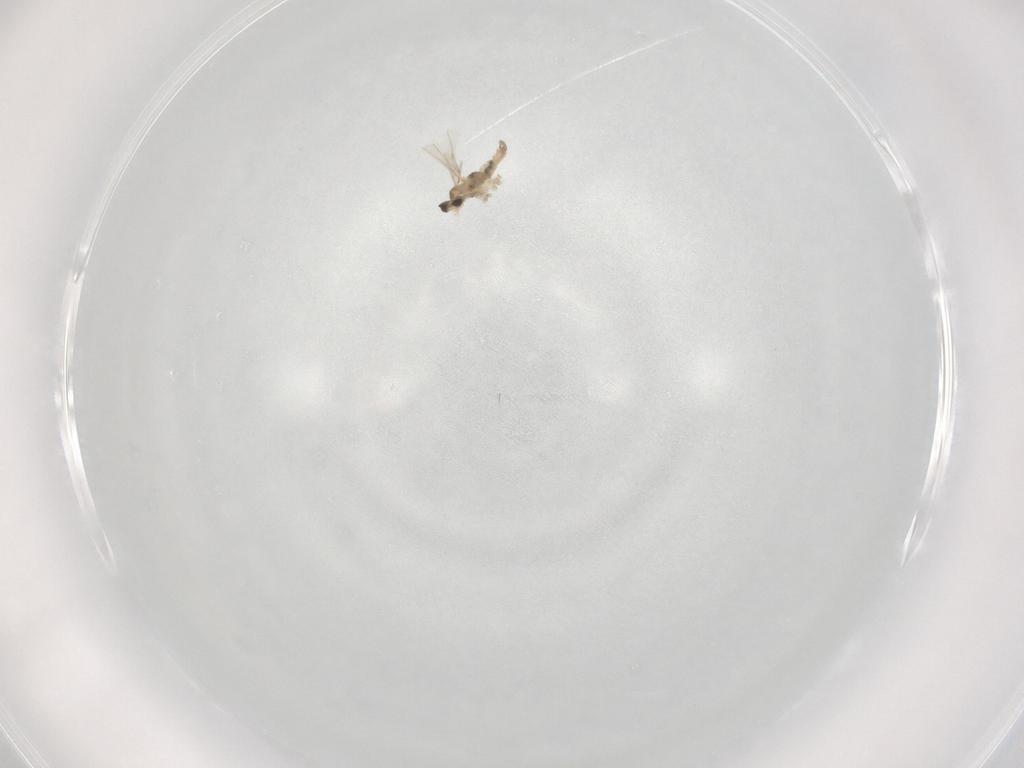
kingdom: Animalia
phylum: Arthropoda
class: Insecta
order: Diptera
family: Sciaridae
